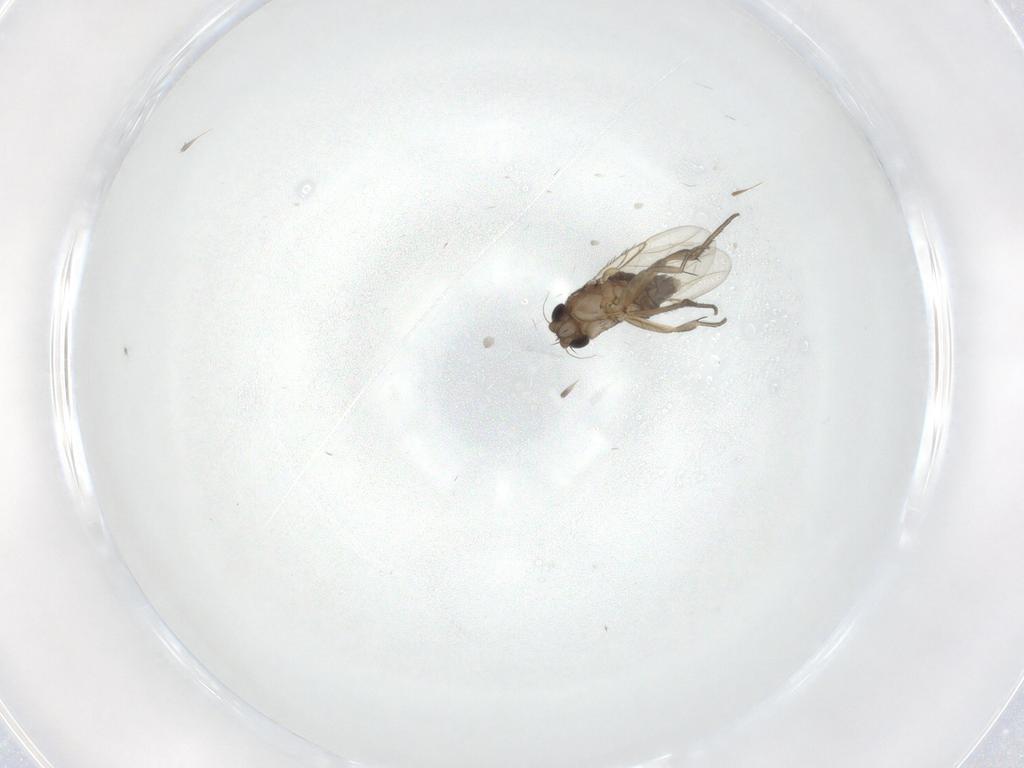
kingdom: Animalia
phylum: Arthropoda
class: Insecta
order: Diptera
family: Phoridae
